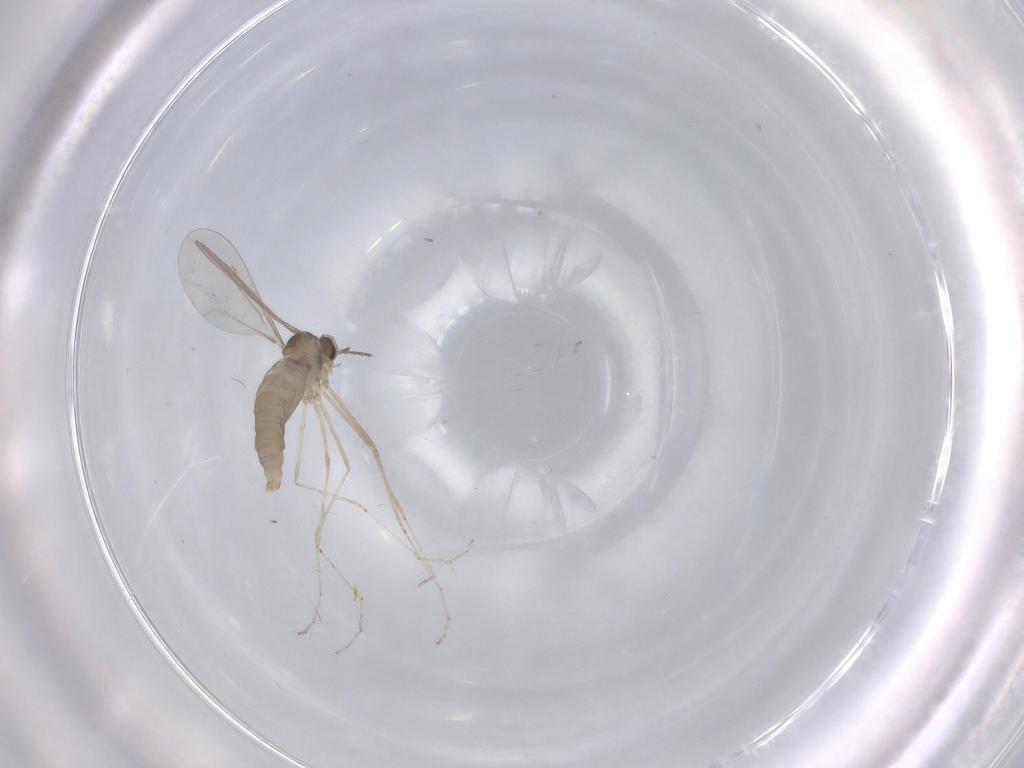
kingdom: Animalia
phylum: Arthropoda
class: Insecta
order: Diptera
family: Cecidomyiidae
